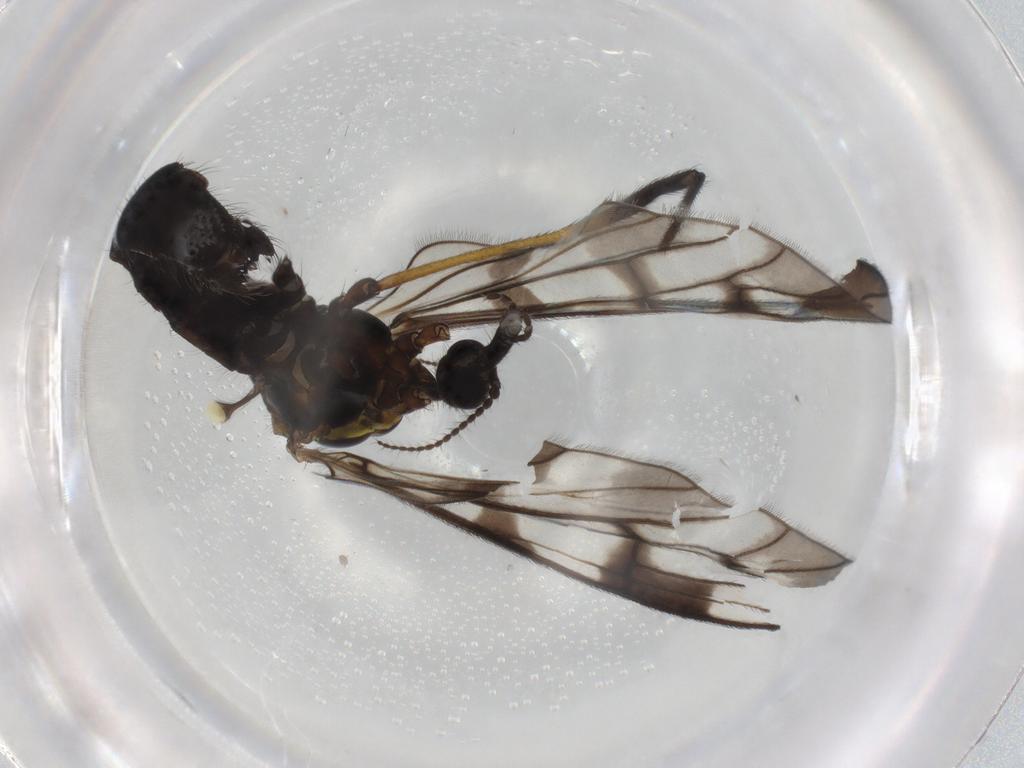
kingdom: Animalia
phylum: Arthropoda
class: Insecta
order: Diptera
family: Limoniidae
